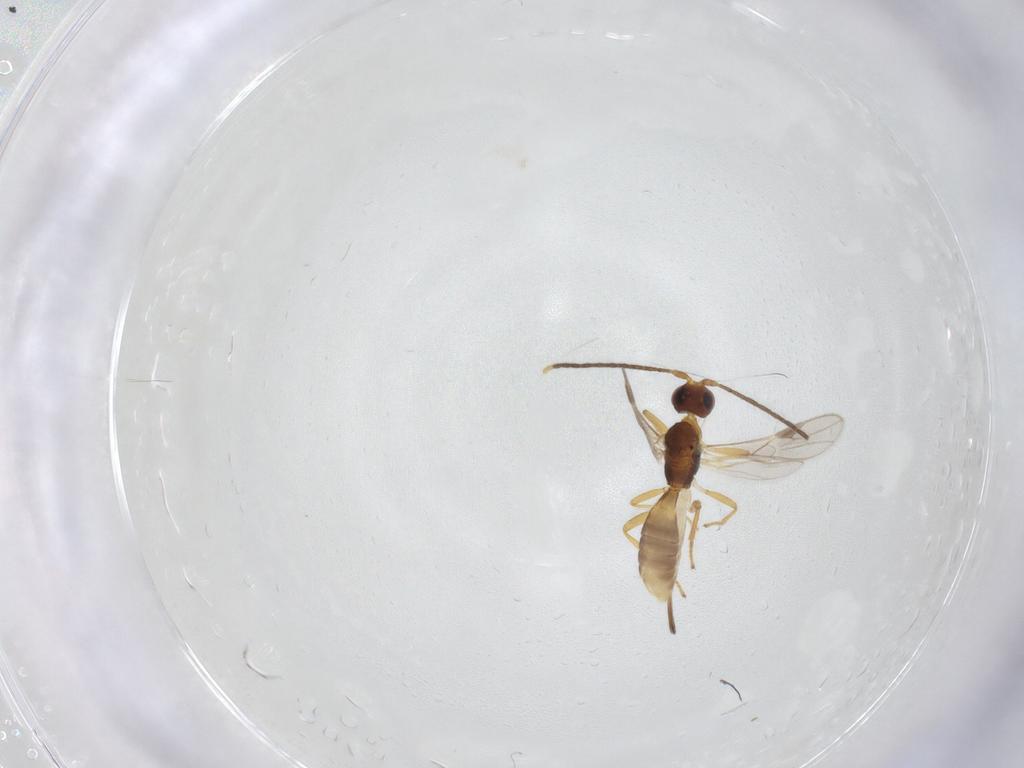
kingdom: Animalia
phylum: Arthropoda
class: Insecta
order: Hymenoptera
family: Braconidae
